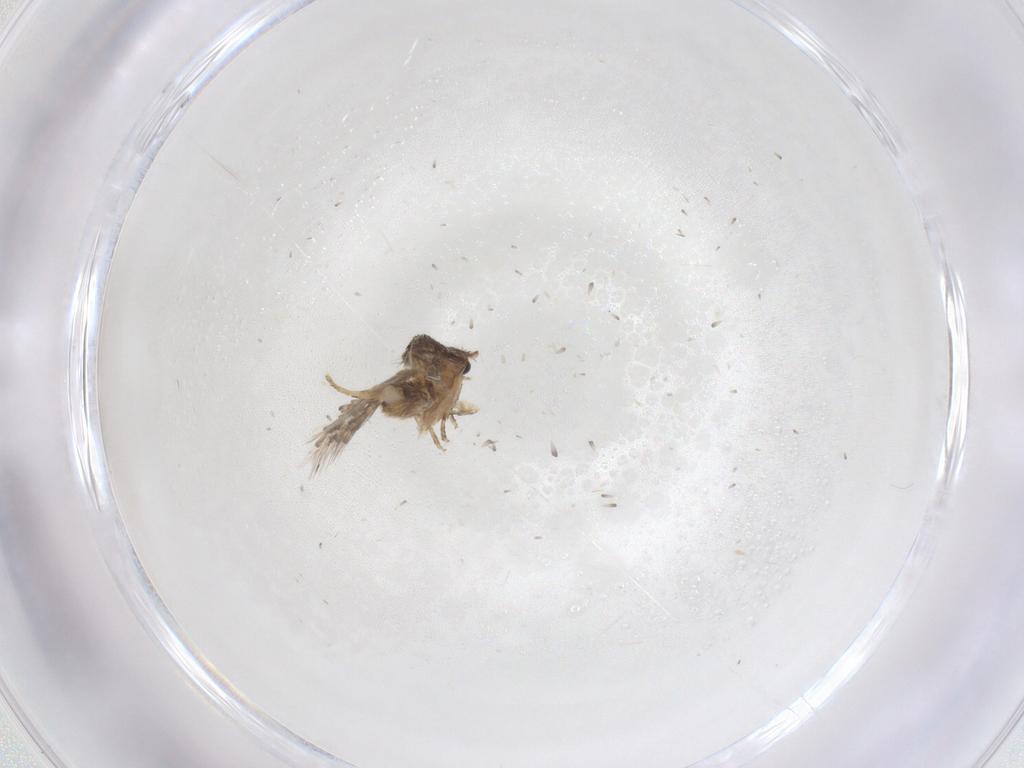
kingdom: Animalia
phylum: Arthropoda
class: Insecta
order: Lepidoptera
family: Nepticulidae
